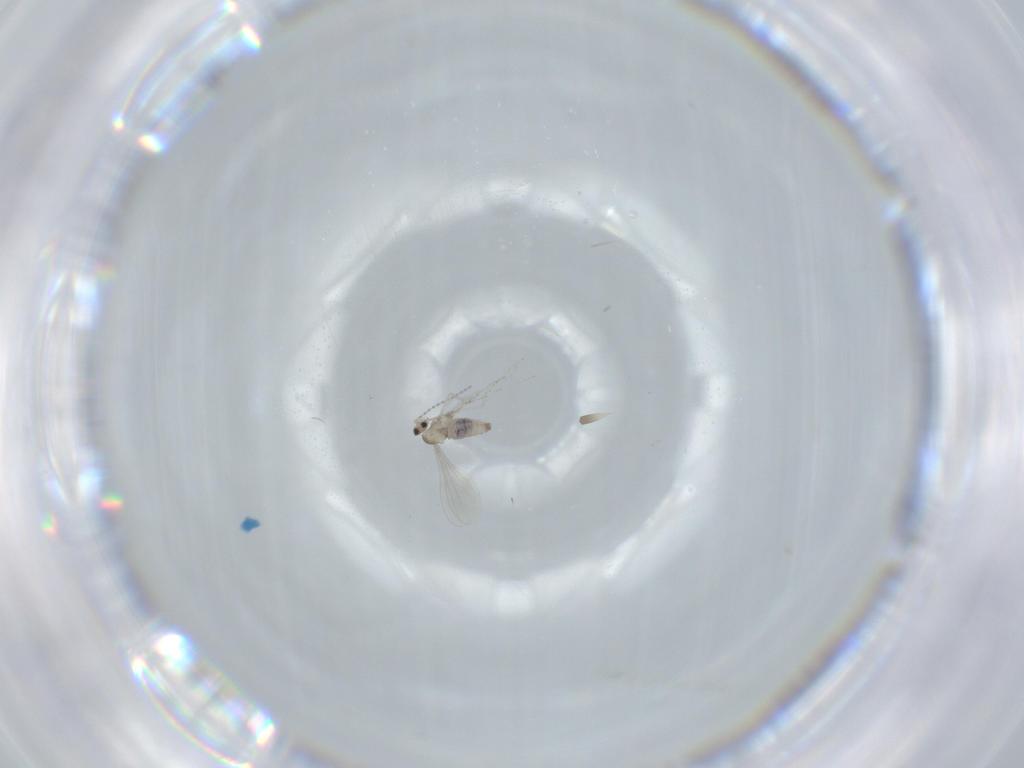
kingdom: Animalia
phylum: Arthropoda
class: Insecta
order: Diptera
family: Cecidomyiidae
